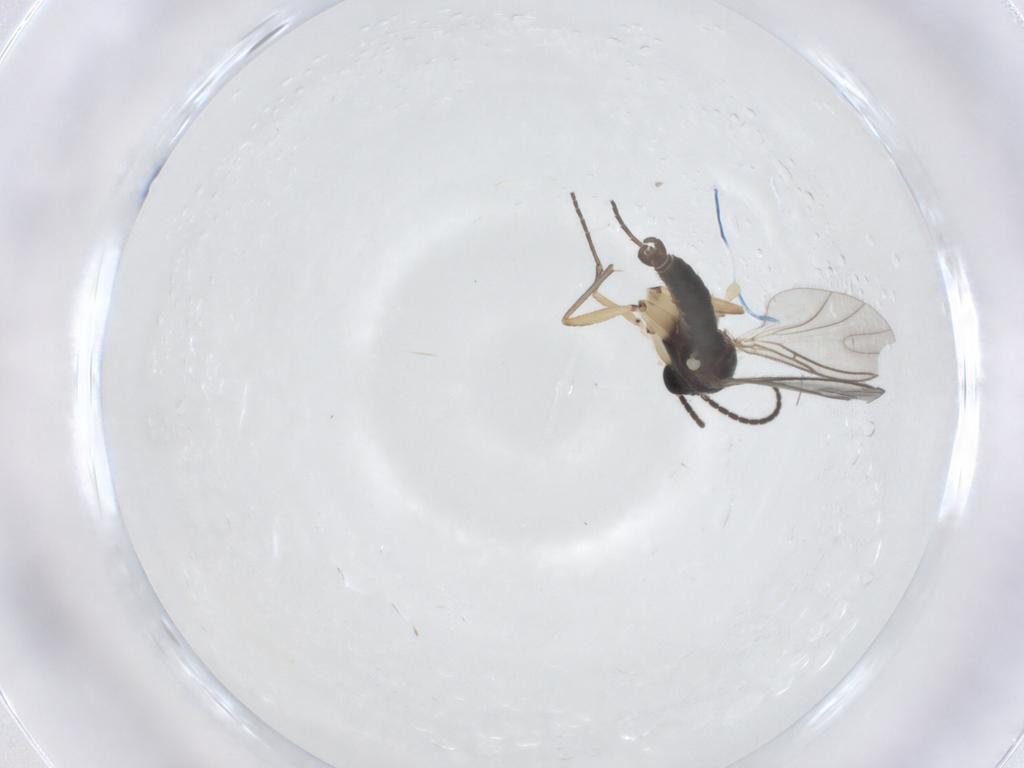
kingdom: Animalia
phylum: Arthropoda
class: Insecta
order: Diptera
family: Sciaridae
